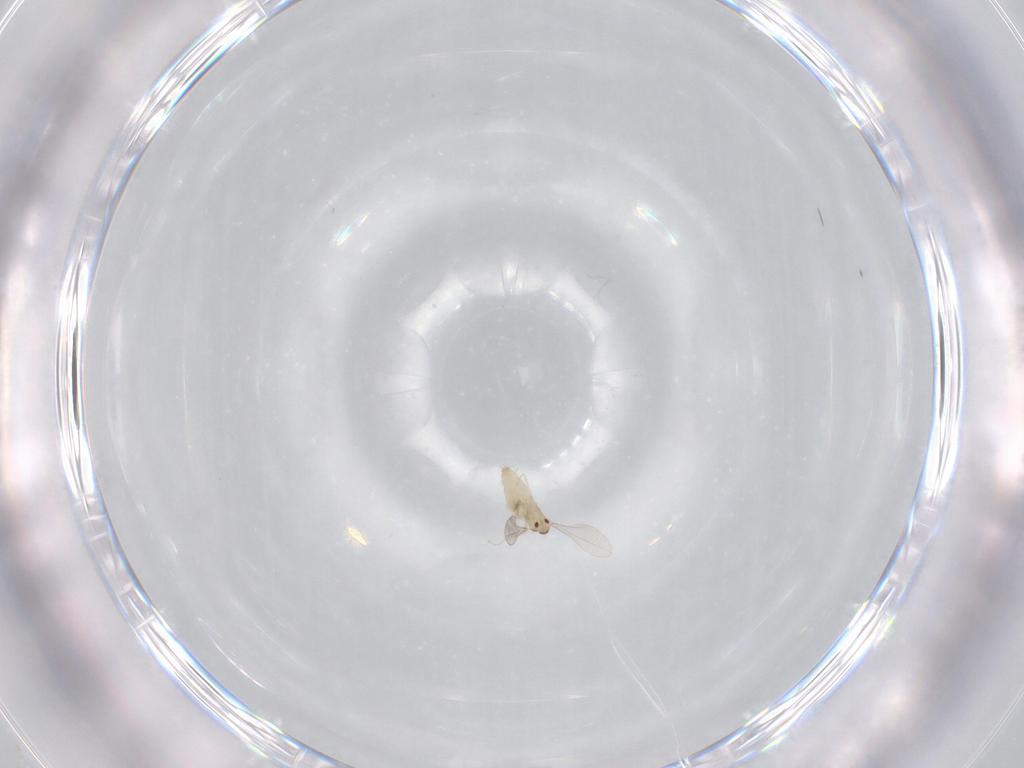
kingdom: Animalia
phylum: Arthropoda
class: Insecta
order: Diptera
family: Cecidomyiidae
